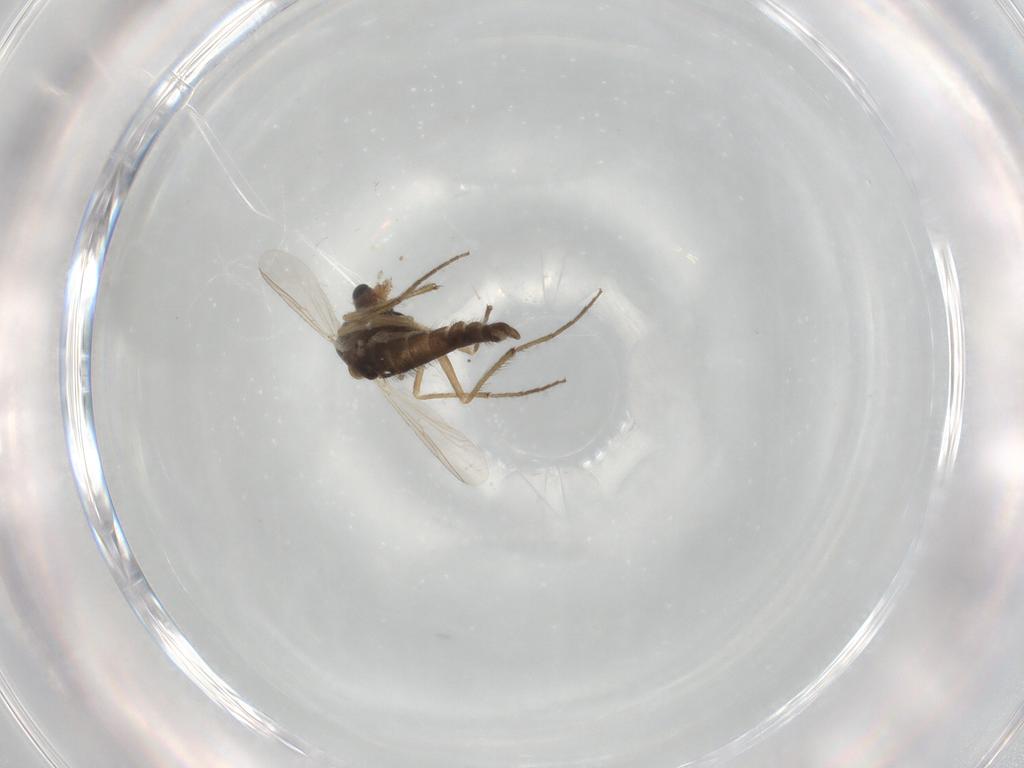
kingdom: Animalia
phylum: Arthropoda
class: Insecta
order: Diptera
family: Chironomidae
